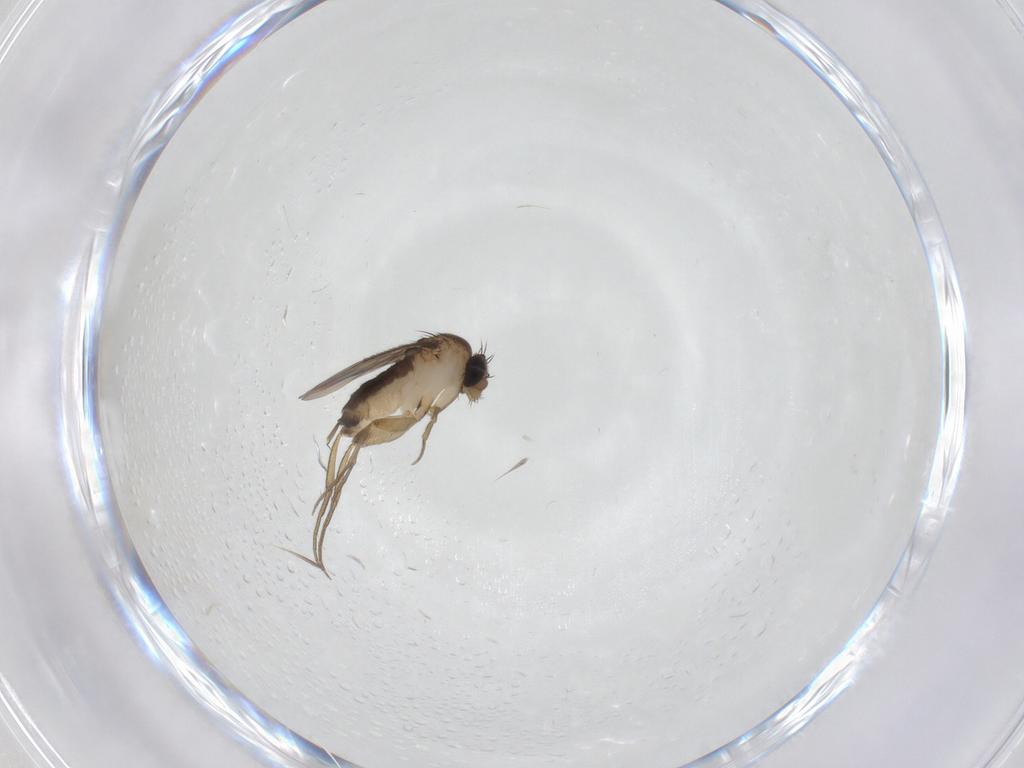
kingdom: Animalia
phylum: Arthropoda
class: Insecta
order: Diptera
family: Phoridae
